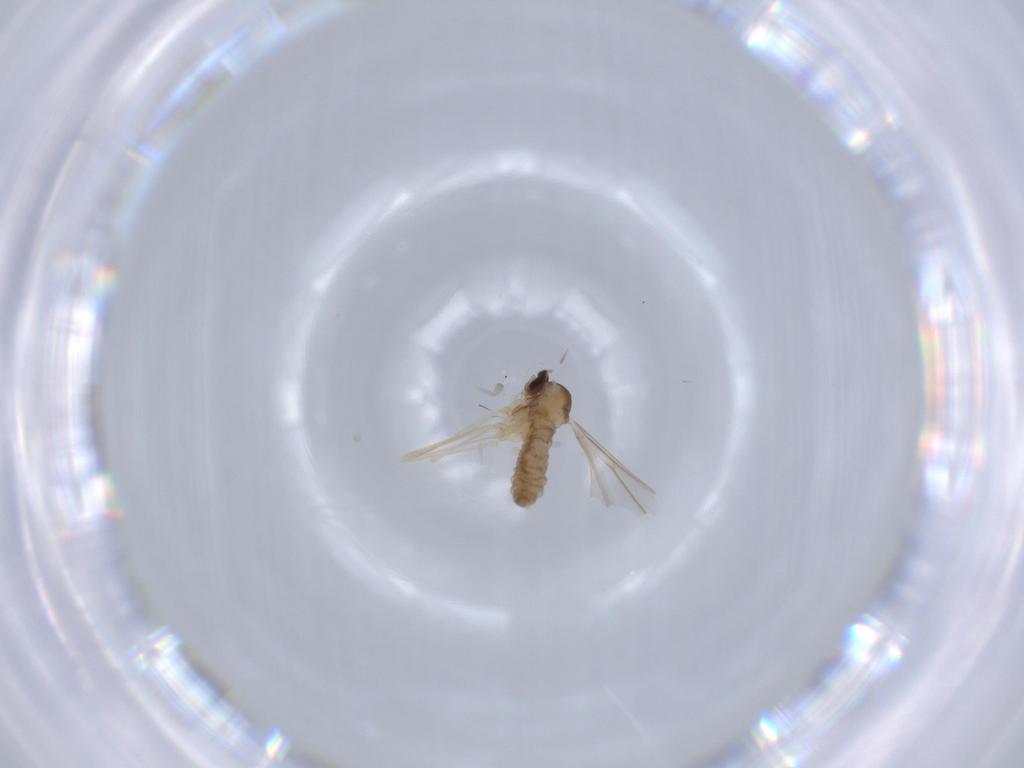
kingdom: Animalia
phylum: Arthropoda
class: Insecta
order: Diptera
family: Cecidomyiidae
